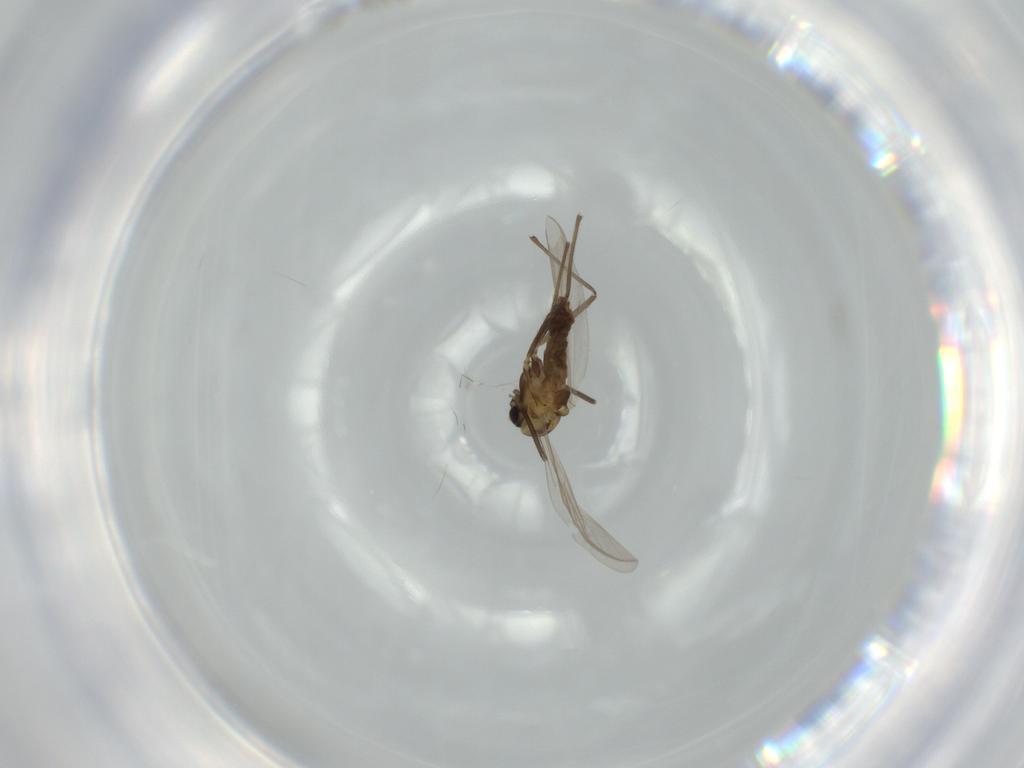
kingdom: Animalia
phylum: Arthropoda
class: Insecta
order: Diptera
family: Chironomidae
